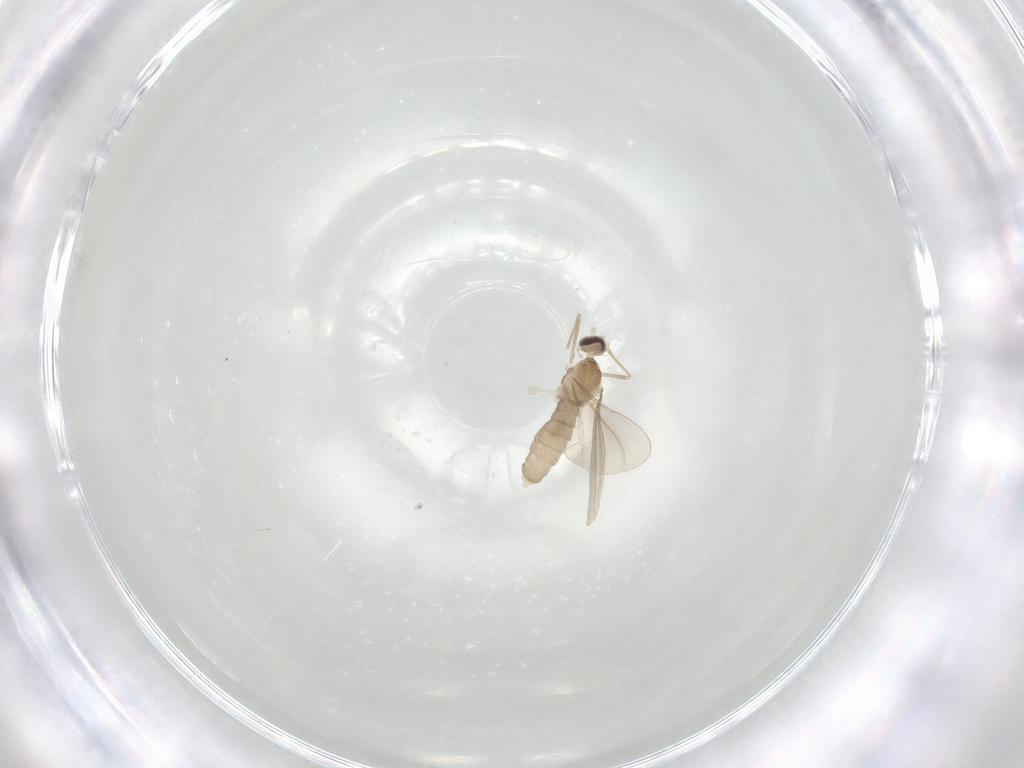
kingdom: Animalia
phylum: Arthropoda
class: Insecta
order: Diptera
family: Cecidomyiidae
